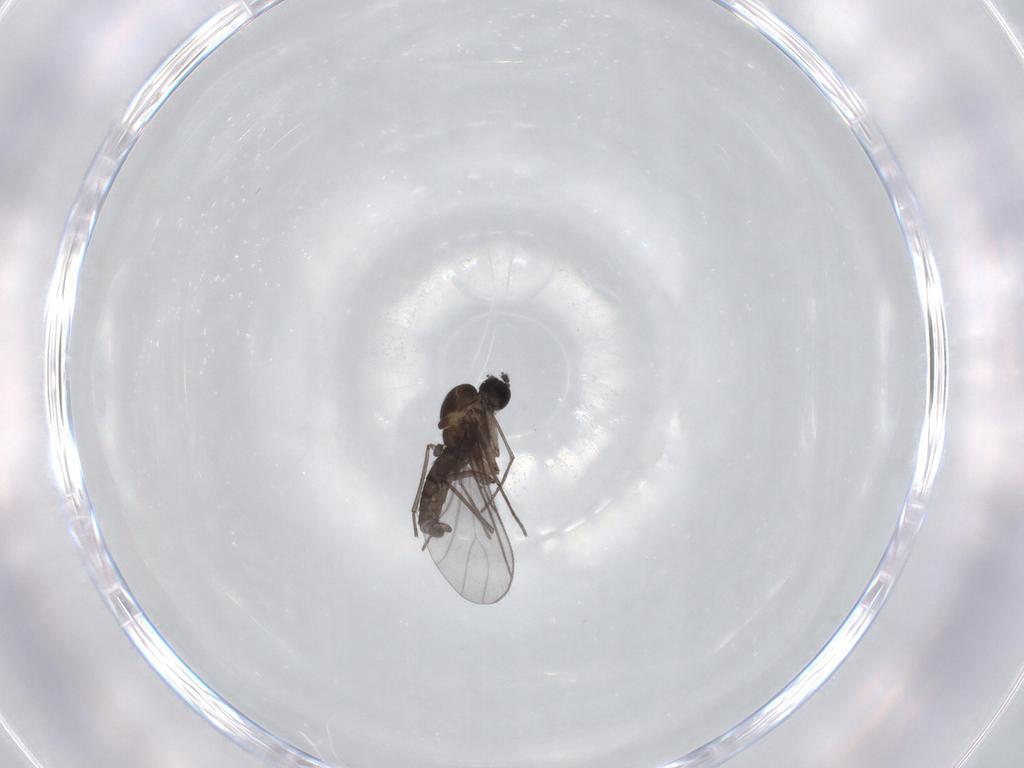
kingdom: Animalia
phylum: Arthropoda
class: Insecta
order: Diptera
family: Sciaridae
